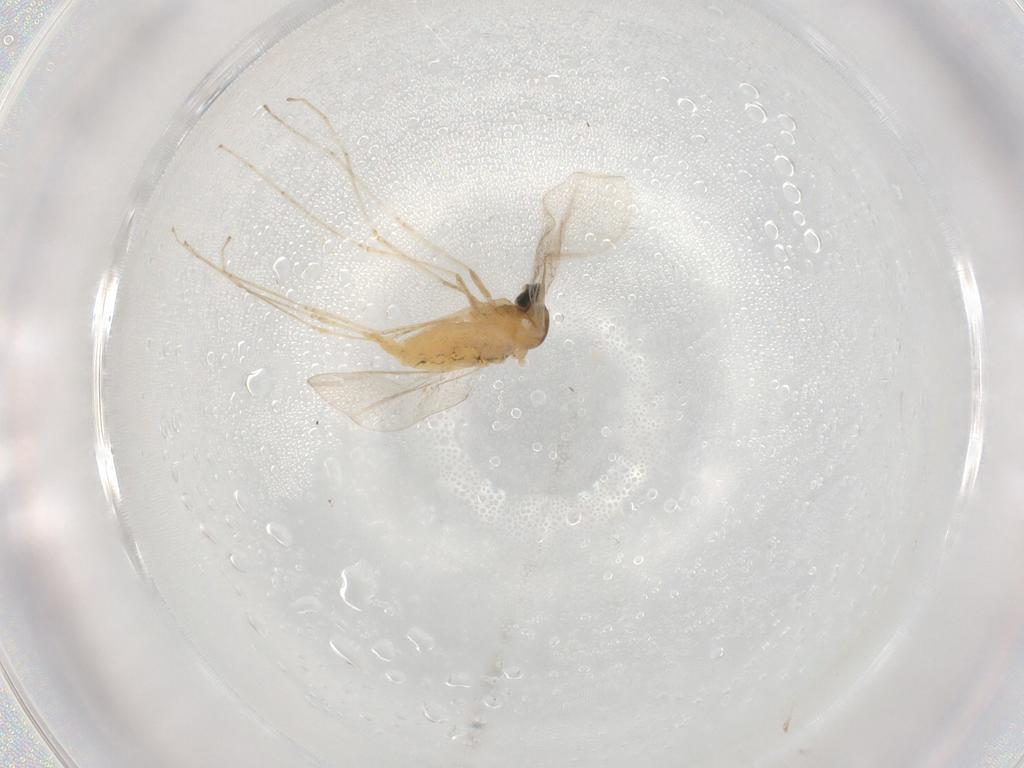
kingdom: Animalia
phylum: Arthropoda
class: Insecta
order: Diptera
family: Cecidomyiidae
